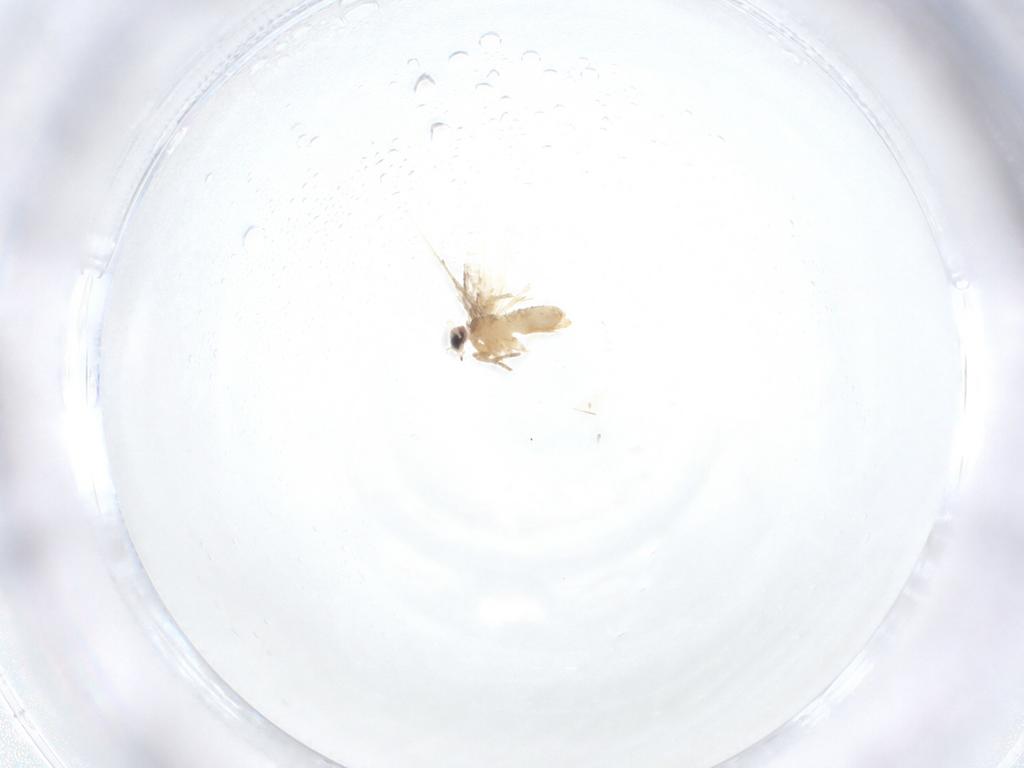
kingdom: Animalia
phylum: Arthropoda
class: Insecta
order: Lepidoptera
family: Nepticulidae
